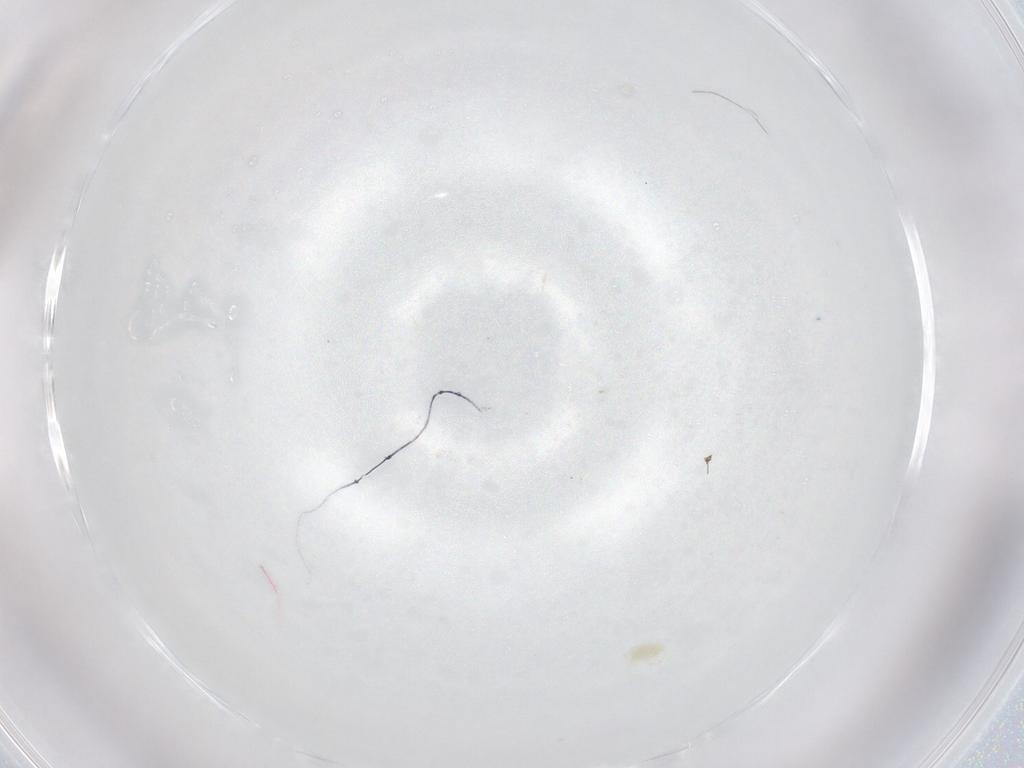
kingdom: Animalia
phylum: Arthropoda
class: Arachnida
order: Trombidiformes
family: Rhagidiidae
